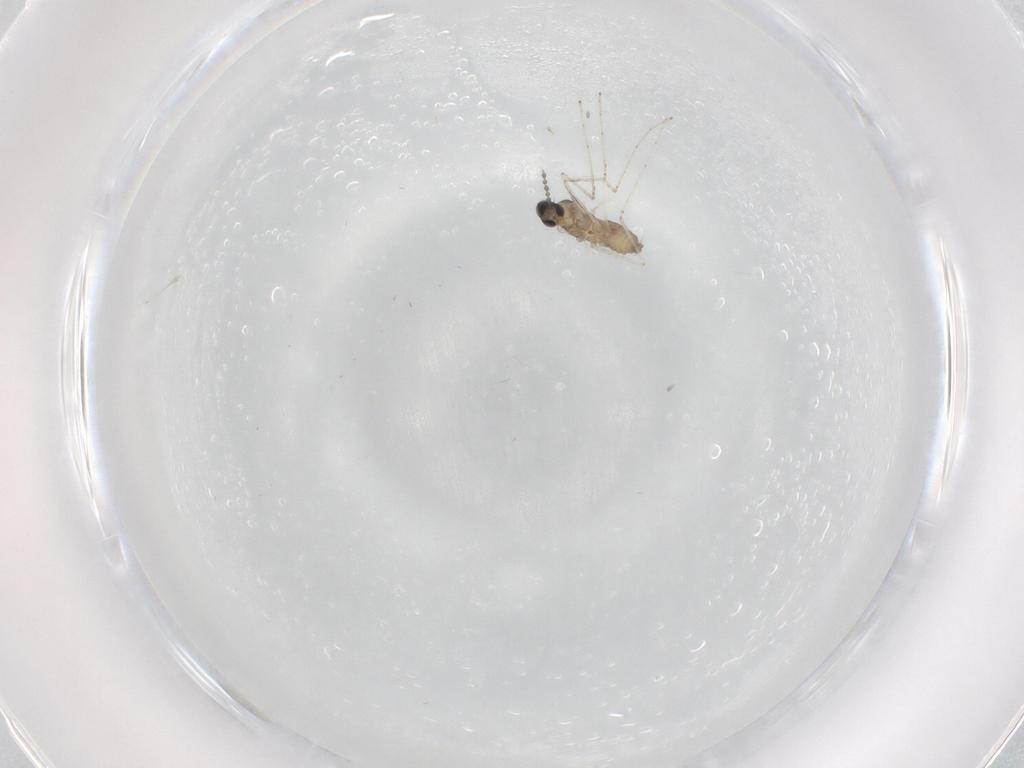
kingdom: Animalia
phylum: Arthropoda
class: Insecta
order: Diptera
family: Cecidomyiidae
